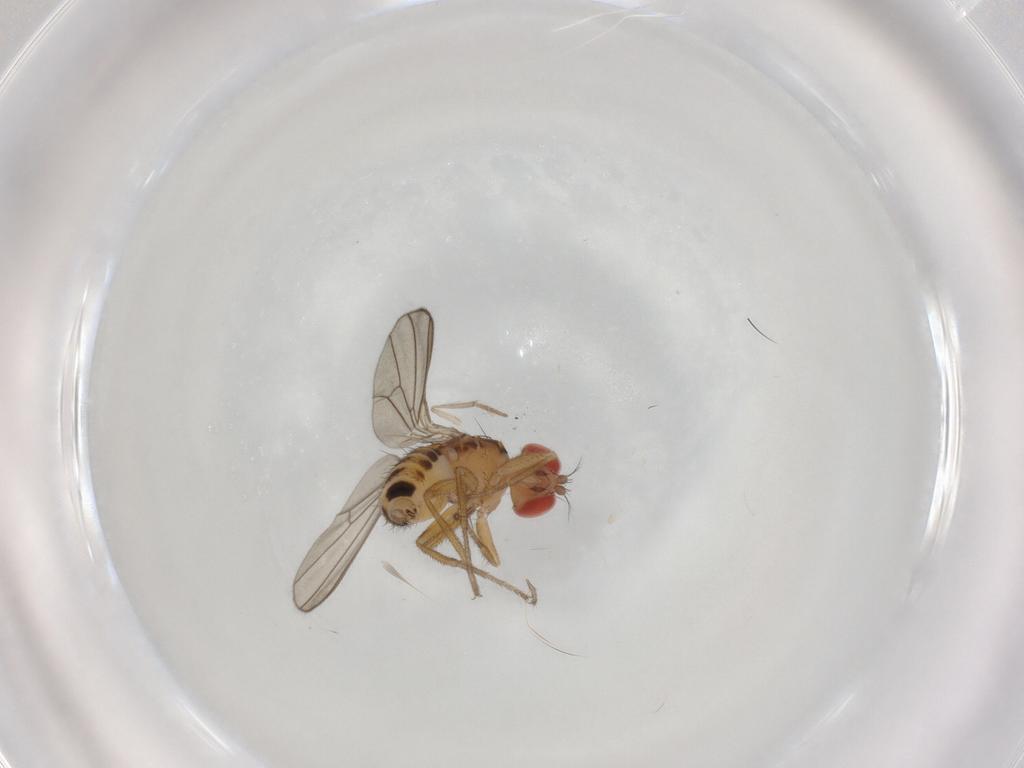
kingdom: Animalia
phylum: Arthropoda
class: Insecta
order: Diptera
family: Drosophilidae
